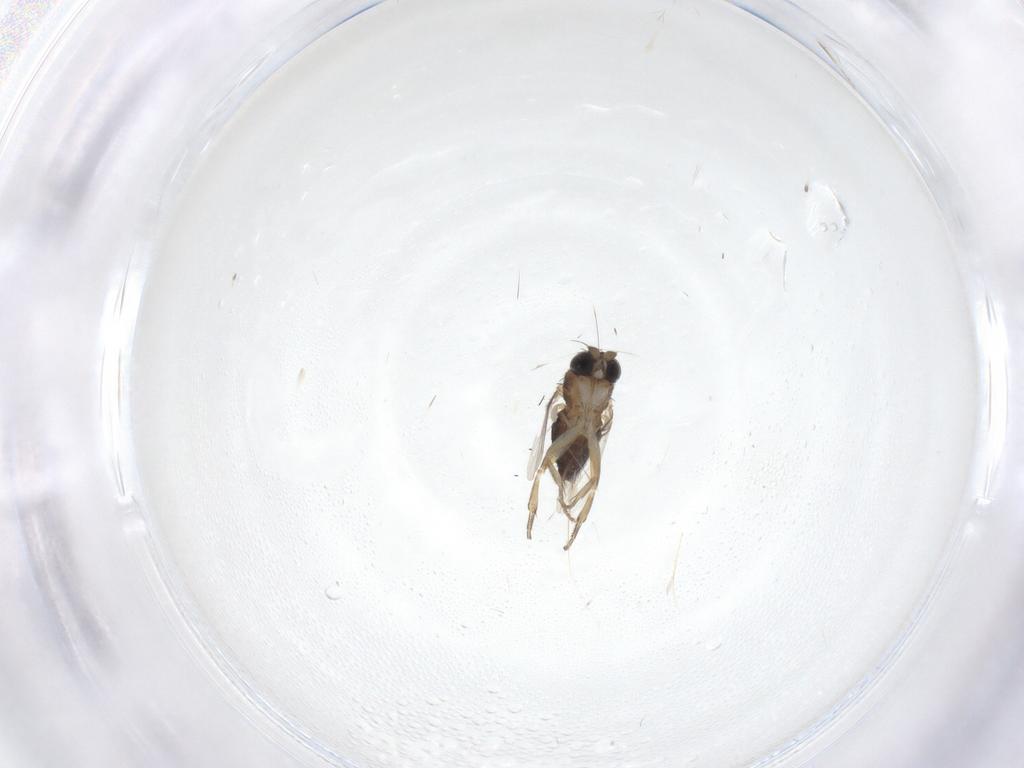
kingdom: Animalia
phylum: Arthropoda
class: Insecta
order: Diptera
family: Phoridae
